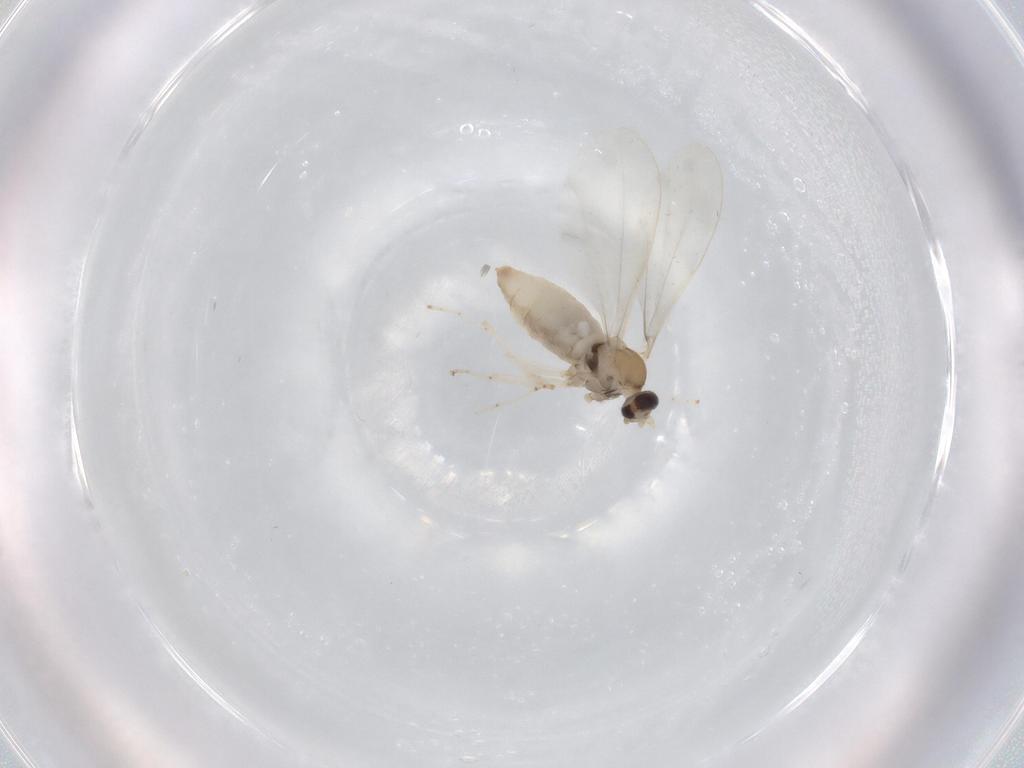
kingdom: Animalia
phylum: Arthropoda
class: Insecta
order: Diptera
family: Cecidomyiidae
